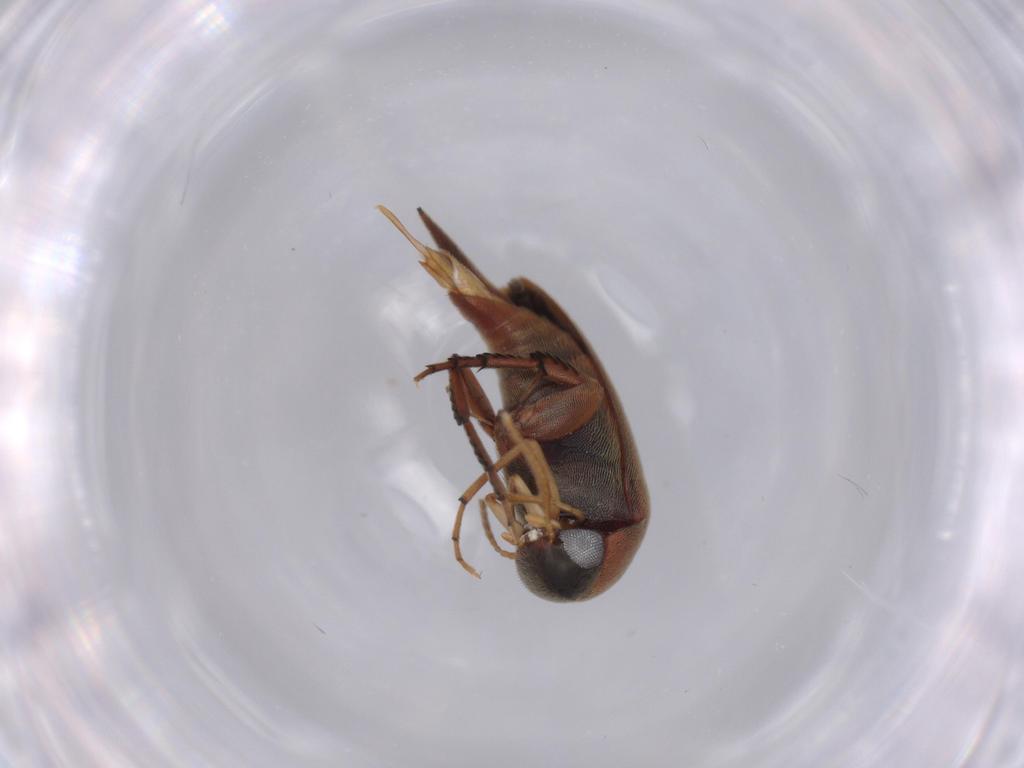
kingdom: Animalia
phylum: Arthropoda
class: Insecta
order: Coleoptera
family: Mordellidae
